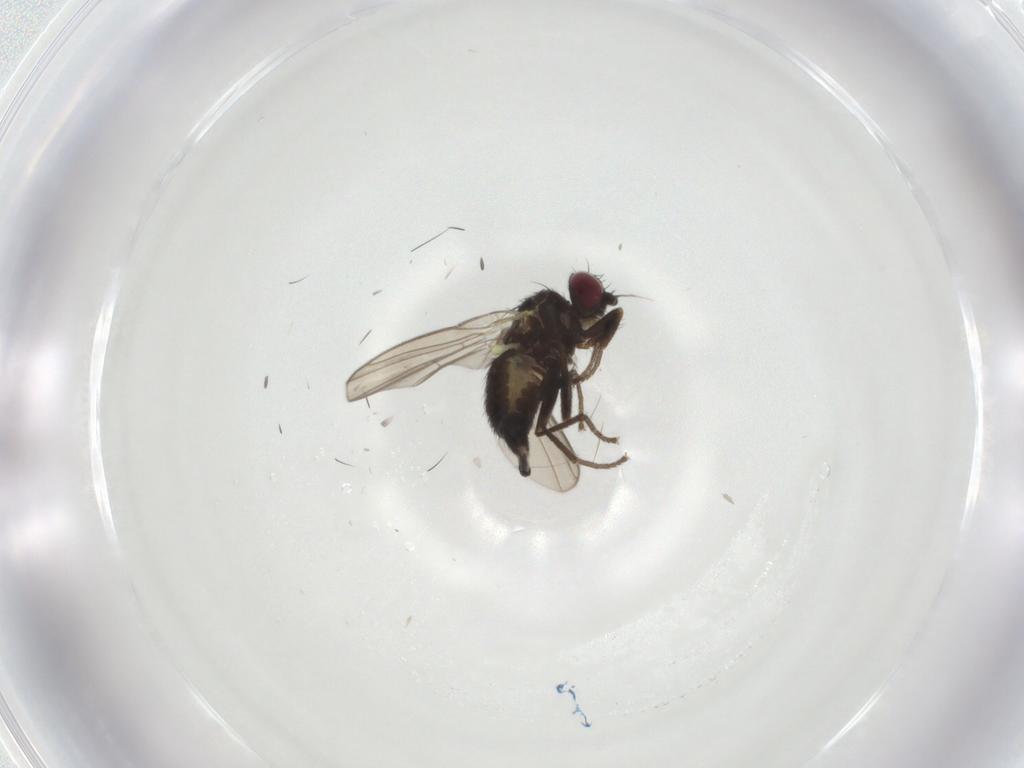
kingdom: Animalia
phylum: Arthropoda
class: Insecta
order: Diptera
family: Agromyzidae
